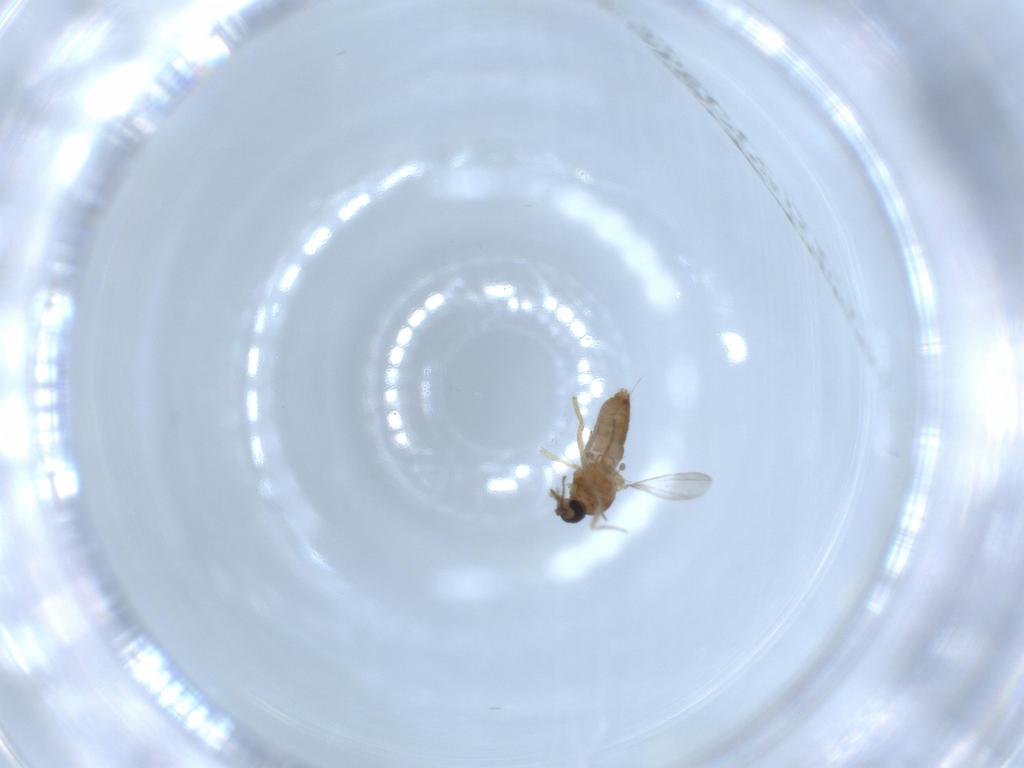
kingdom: Animalia
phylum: Arthropoda
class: Insecta
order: Diptera
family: Ceratopogonidae
